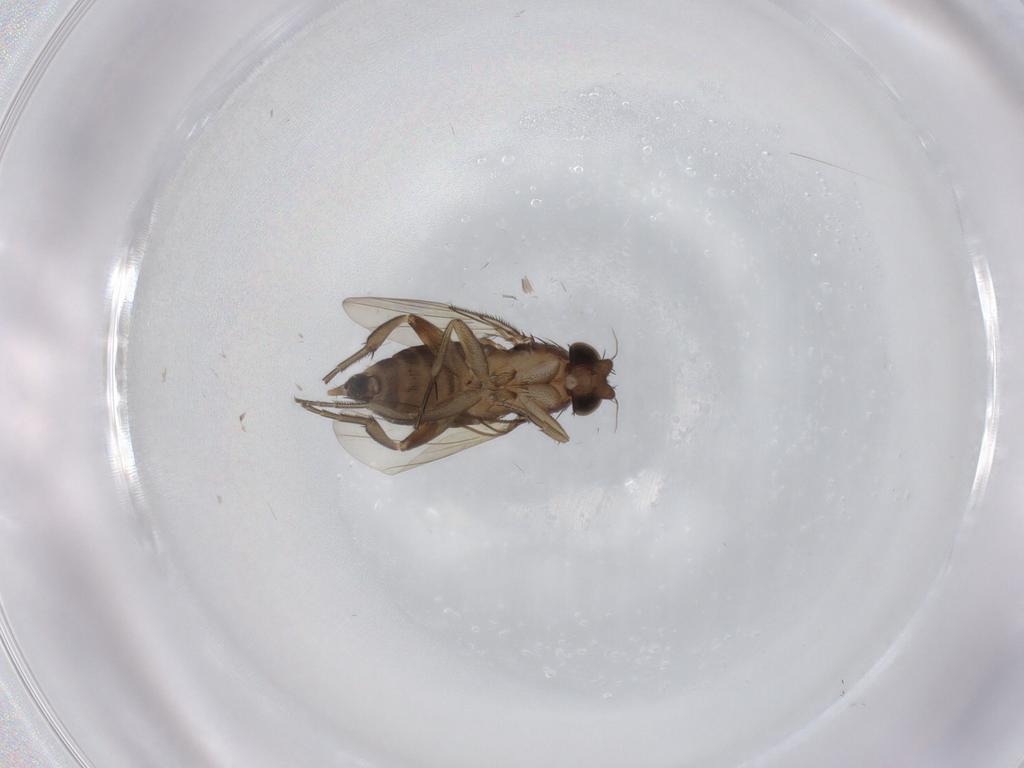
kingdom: Animalia
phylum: Arthropoda
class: Insecta
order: Diptera
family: Phoridae
